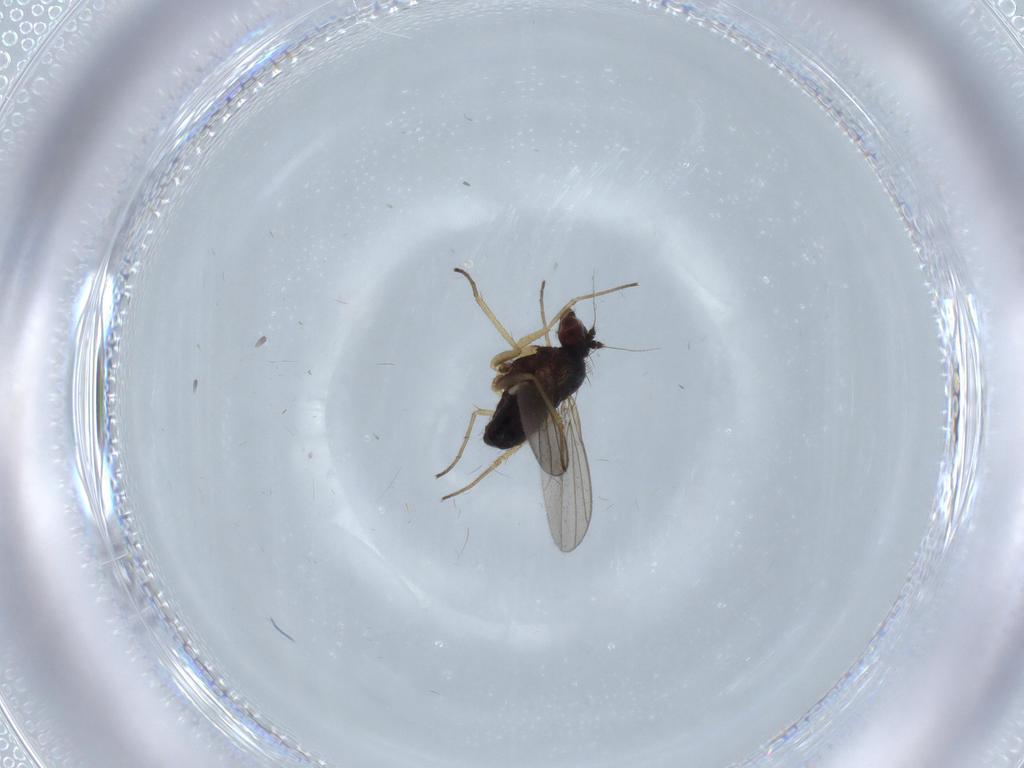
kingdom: Animalia
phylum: Arthropoda
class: Insecta
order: Diptera
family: Dolichopodidae
